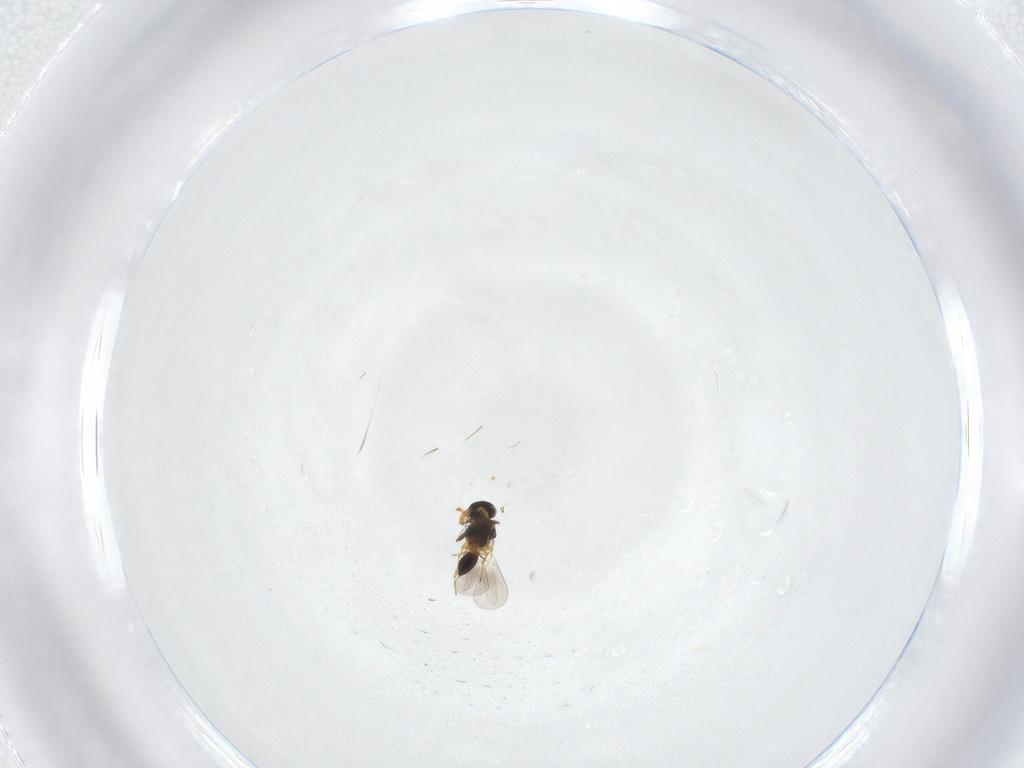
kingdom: Animalia
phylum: Arthropoda
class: Insecta
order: Hymenoptera
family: Platygastridae
